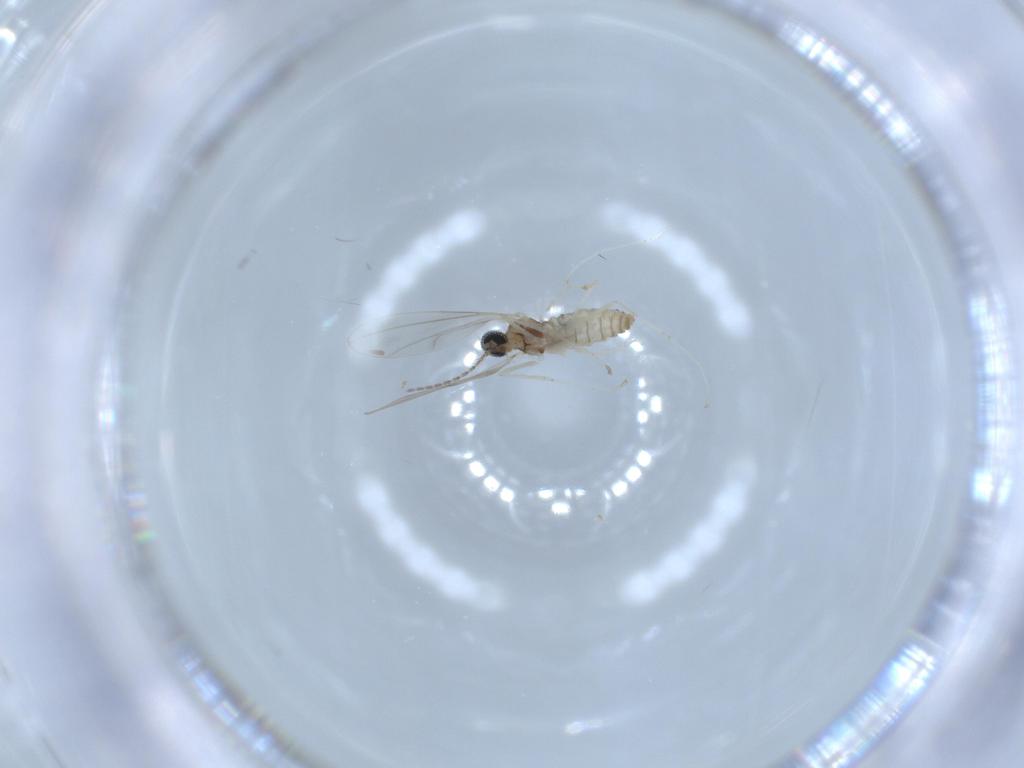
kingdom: Animalia
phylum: Arthropoda
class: Insecta
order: Diptera
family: Cecidomyiidae
